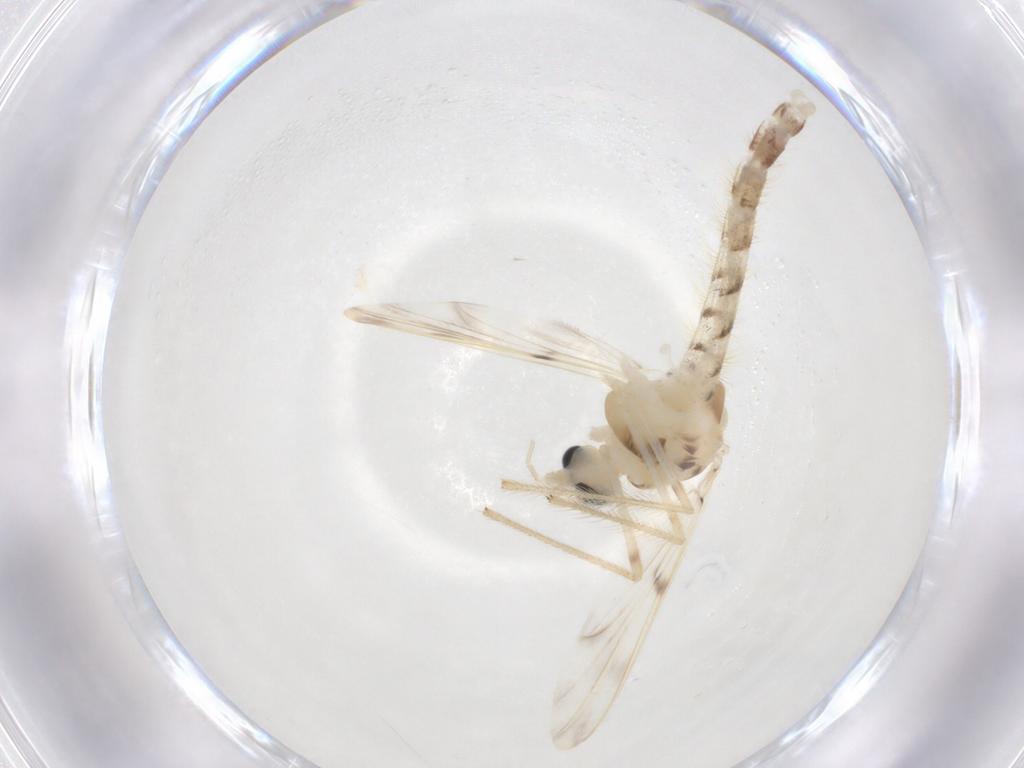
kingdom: Animalia
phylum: Arthropoda
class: Insecta
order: Diptera
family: Chironomidae
